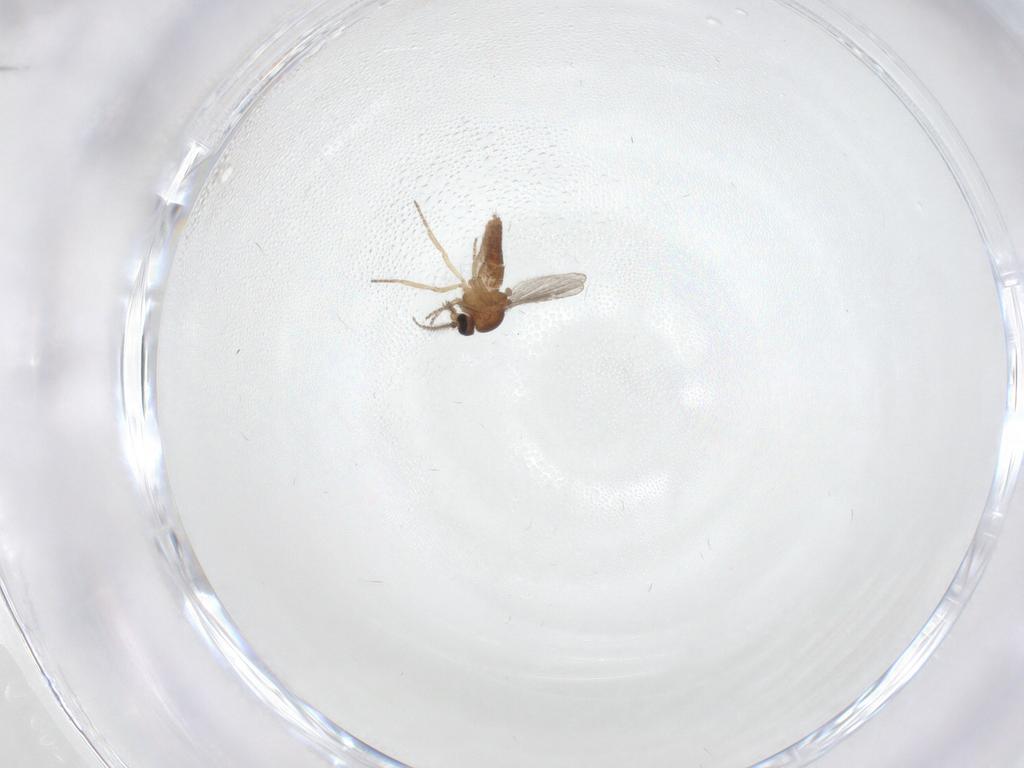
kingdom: Animalia
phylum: Arthropoda
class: Insecta
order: Diptera
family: Ceratopogonidae
